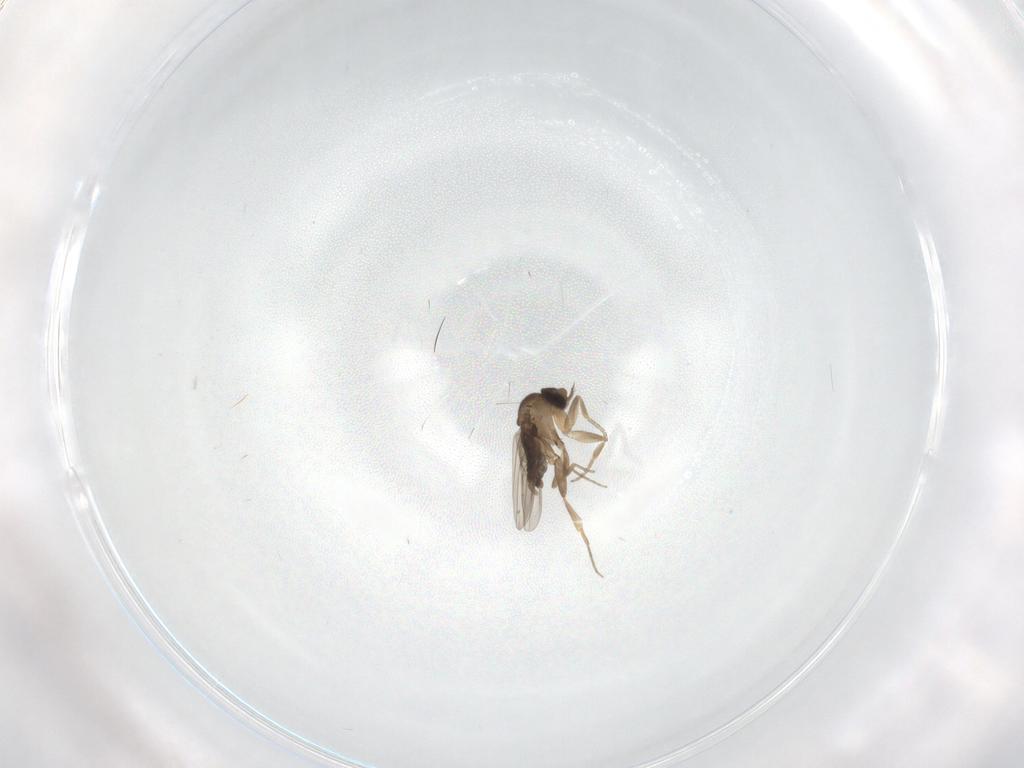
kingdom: Animalia
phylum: Arthropoda
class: Insecta
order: Diptera
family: Phoridae
